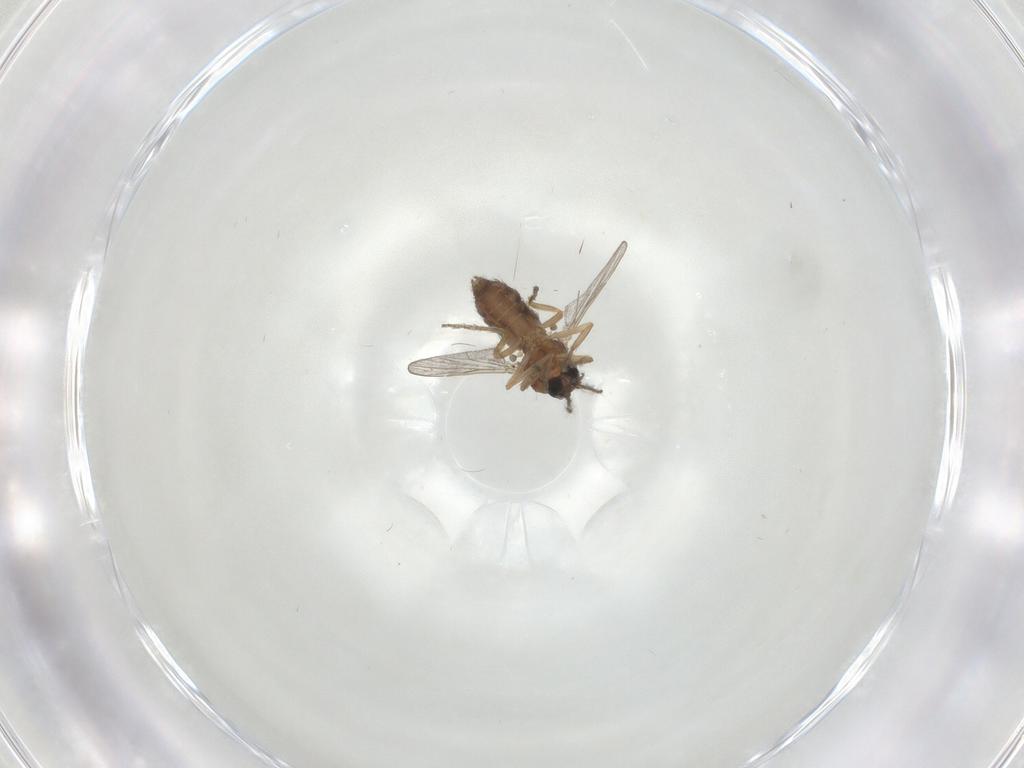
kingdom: Animalia
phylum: Arthropoda
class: Insecta
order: Diptera
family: Ceratopogonidae
